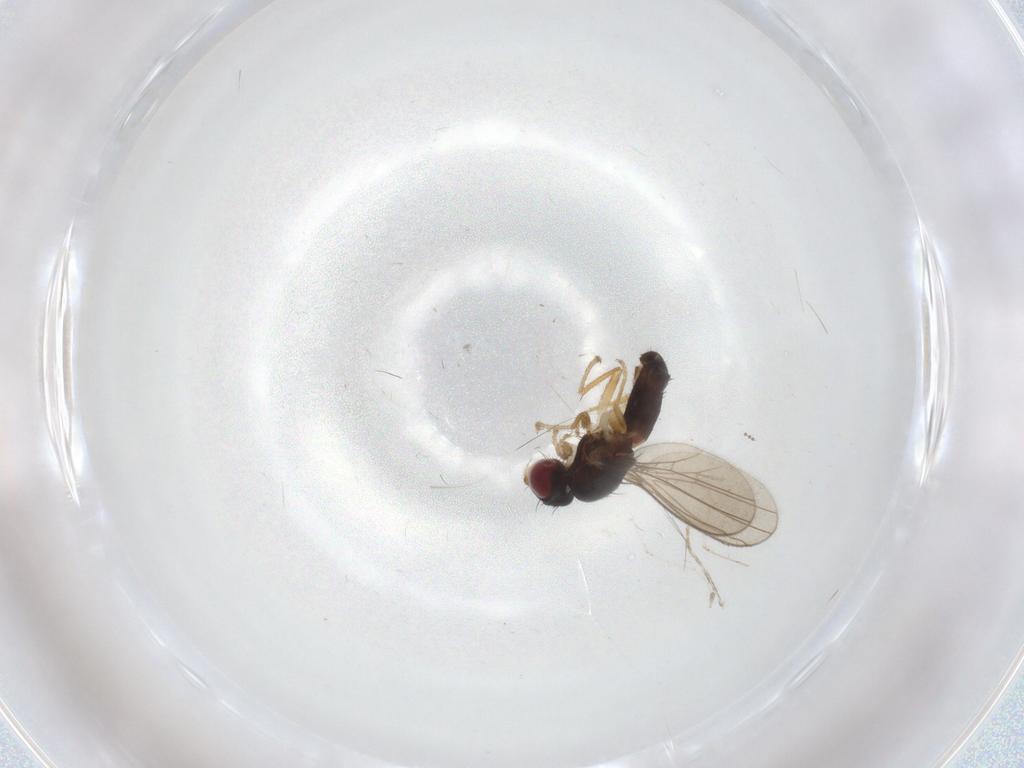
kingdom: Animalia
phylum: Arthropoda
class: Insecta
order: Diptera
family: Anthomyzidae
